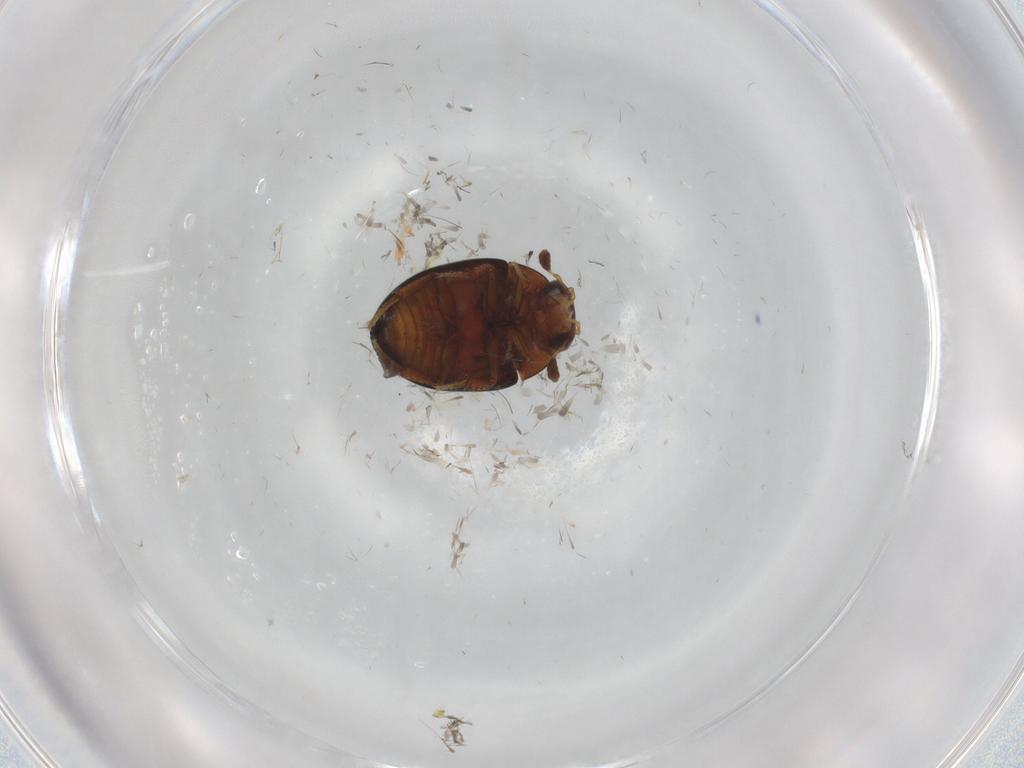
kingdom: Animalia
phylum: Arthropoda
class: Insecta
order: Coleoptera
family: Hydrophilidae
